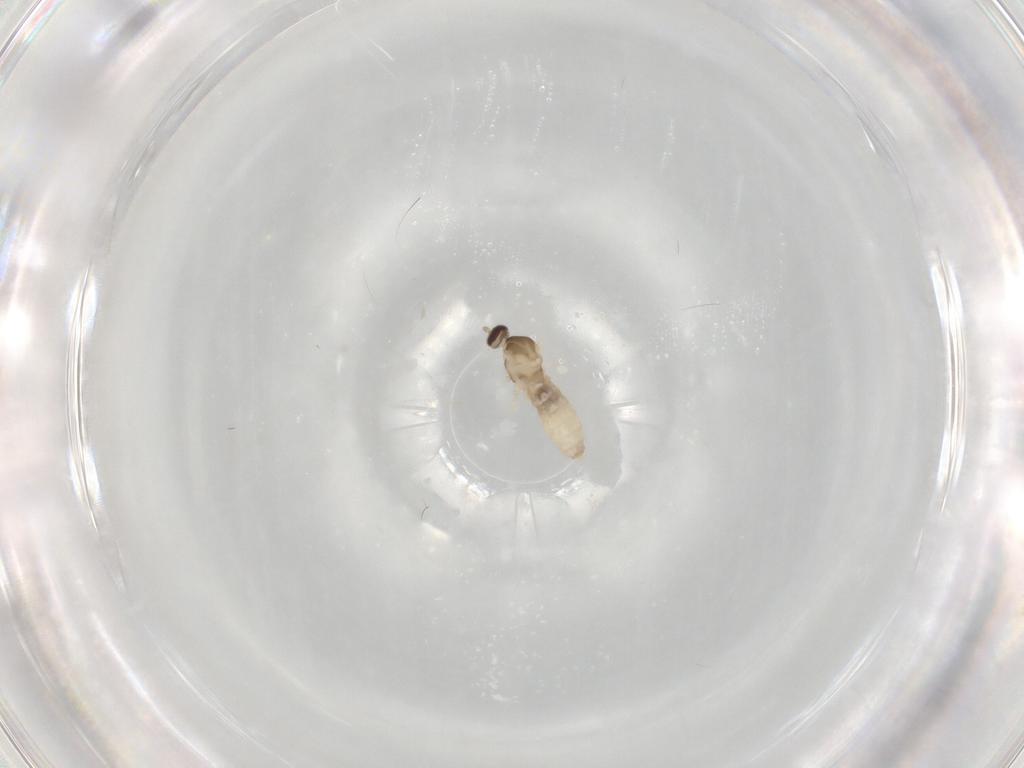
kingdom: Animalia
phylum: Arthropoda
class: Insecta
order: Diptera
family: Cecidomyiidae
